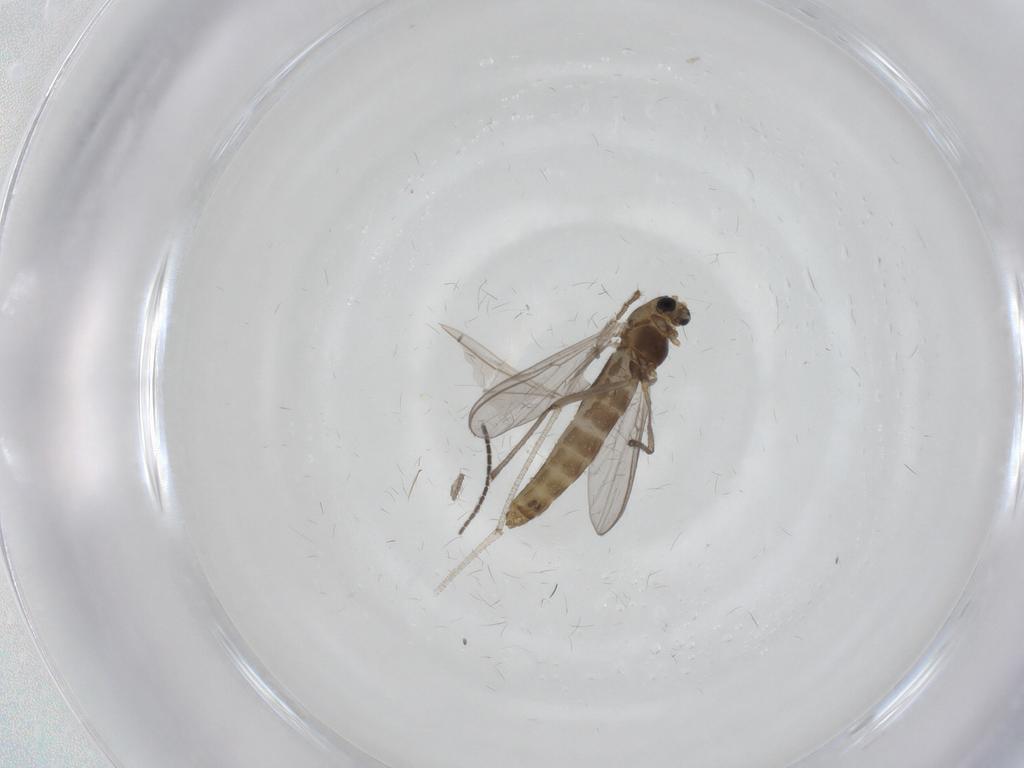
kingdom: Animalia
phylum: Arthropoda
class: Insecta
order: Diptera
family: Chironomidae
